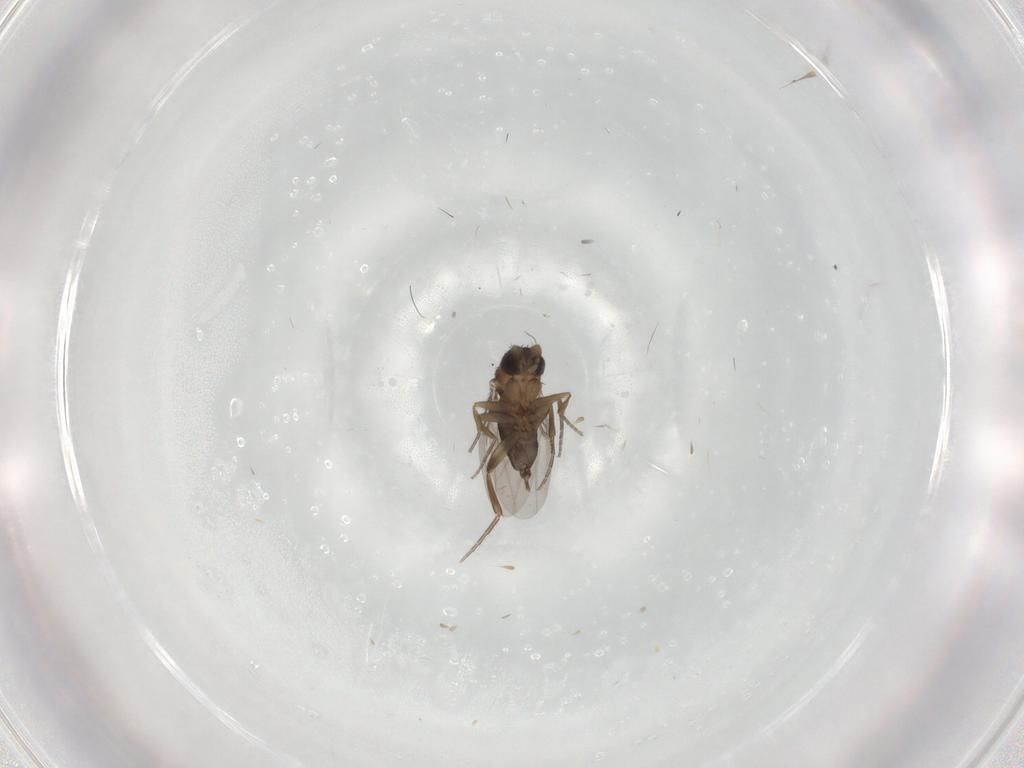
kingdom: Animalia
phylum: Arthropoda
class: Insecta
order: Diptera
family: Phoridae
